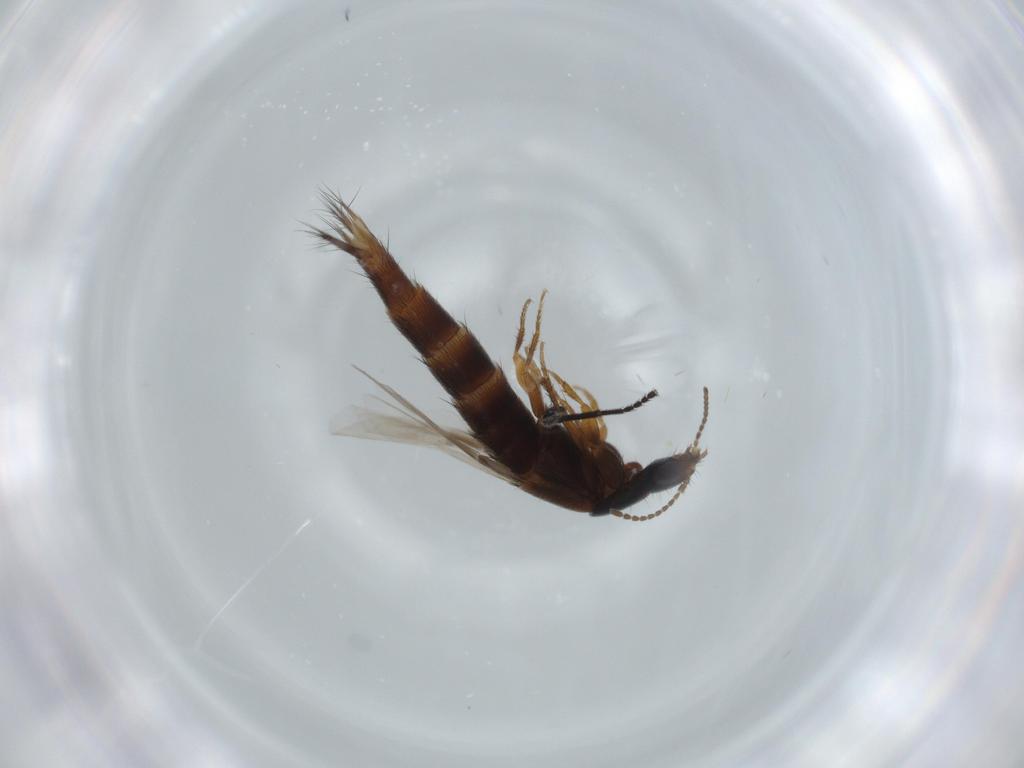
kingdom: Animalia
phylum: Arthropoda
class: Insecta
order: Coleoptera
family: Staphylinidae
